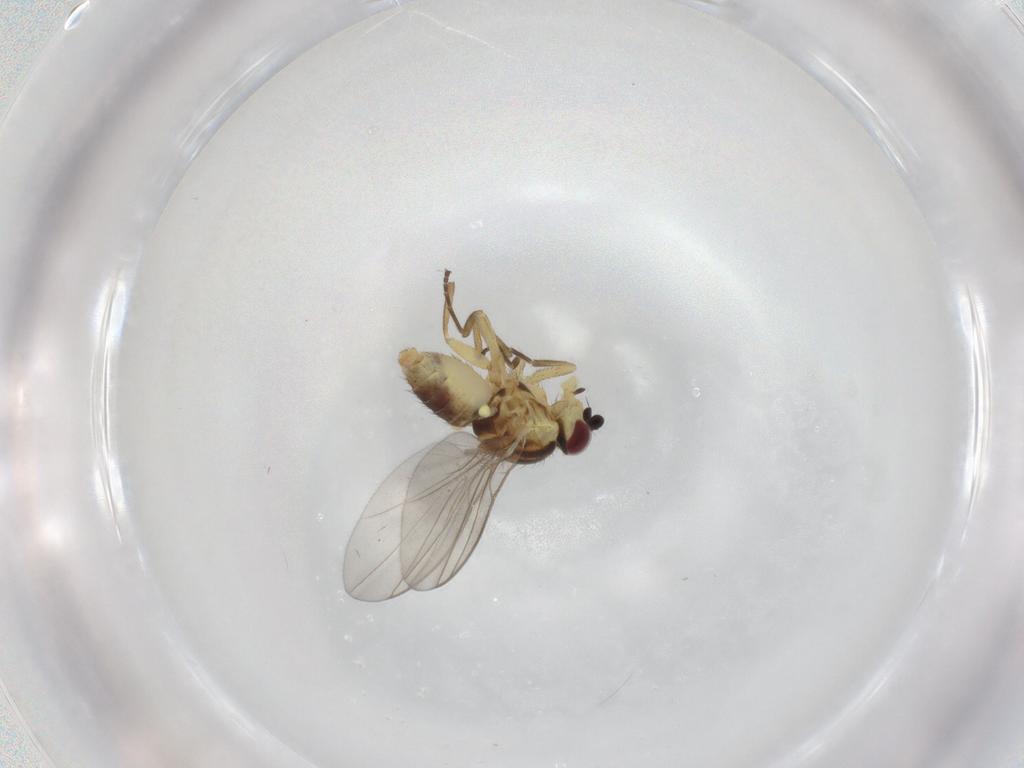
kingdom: Animalia
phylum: Arthropoda
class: Insecta
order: Diptera
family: Agromyzidae
